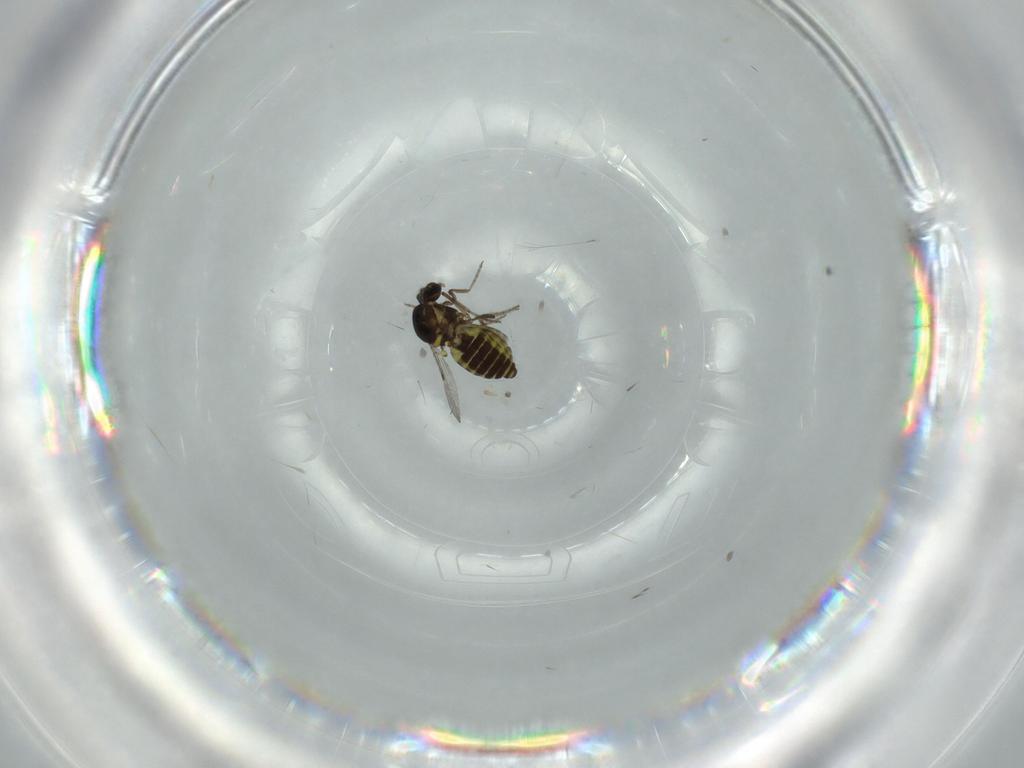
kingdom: Animalia
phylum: Arthropoda
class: Insecta
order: Diptera
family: Ceratopogonidae
